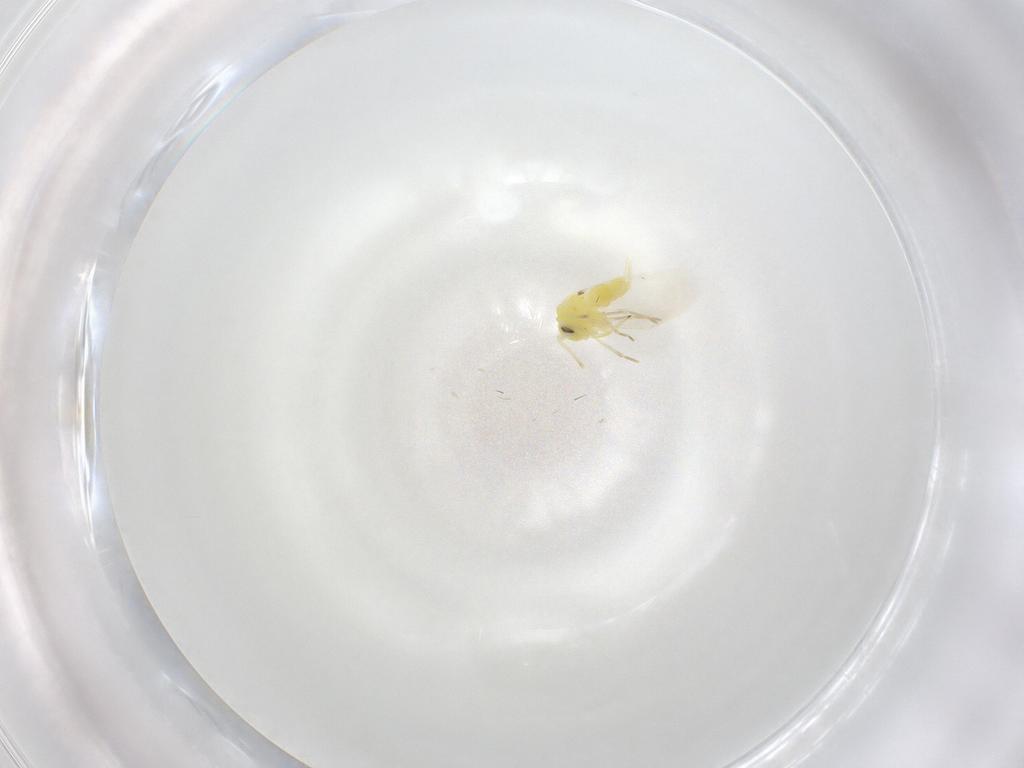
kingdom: Animalia
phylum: Arthropoda
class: Insecta
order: Hemiptera
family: Aleyrodidae
